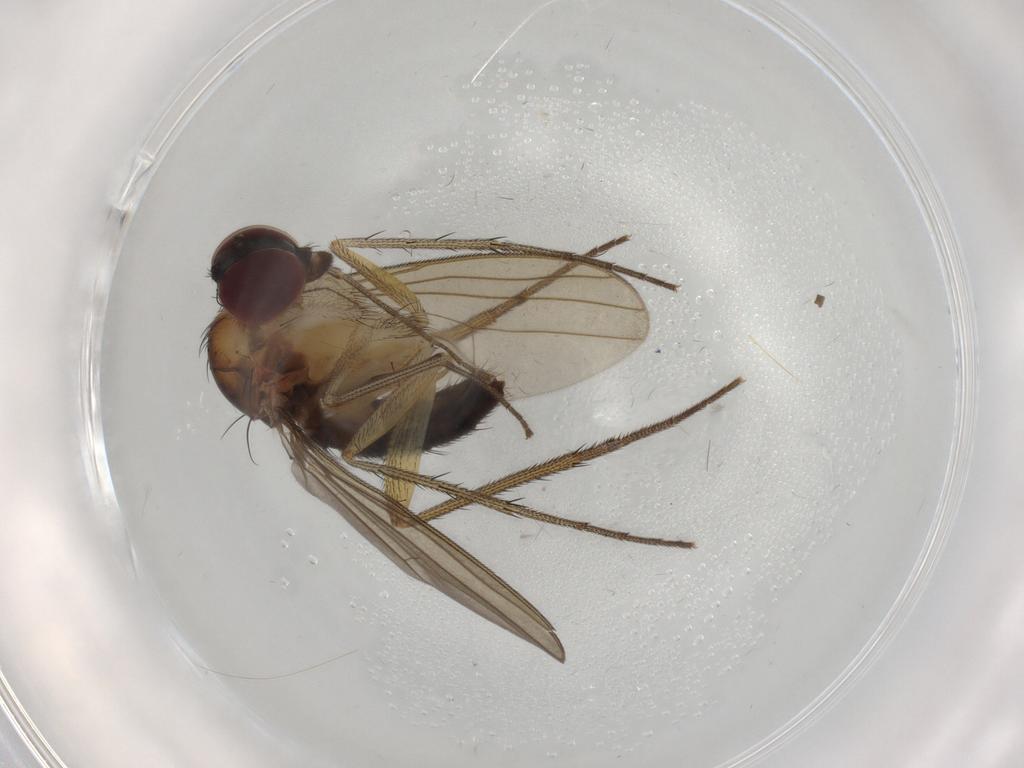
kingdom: Animalia
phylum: Arthropoda
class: Insecta
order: Diptera
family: Dolichopodidae
